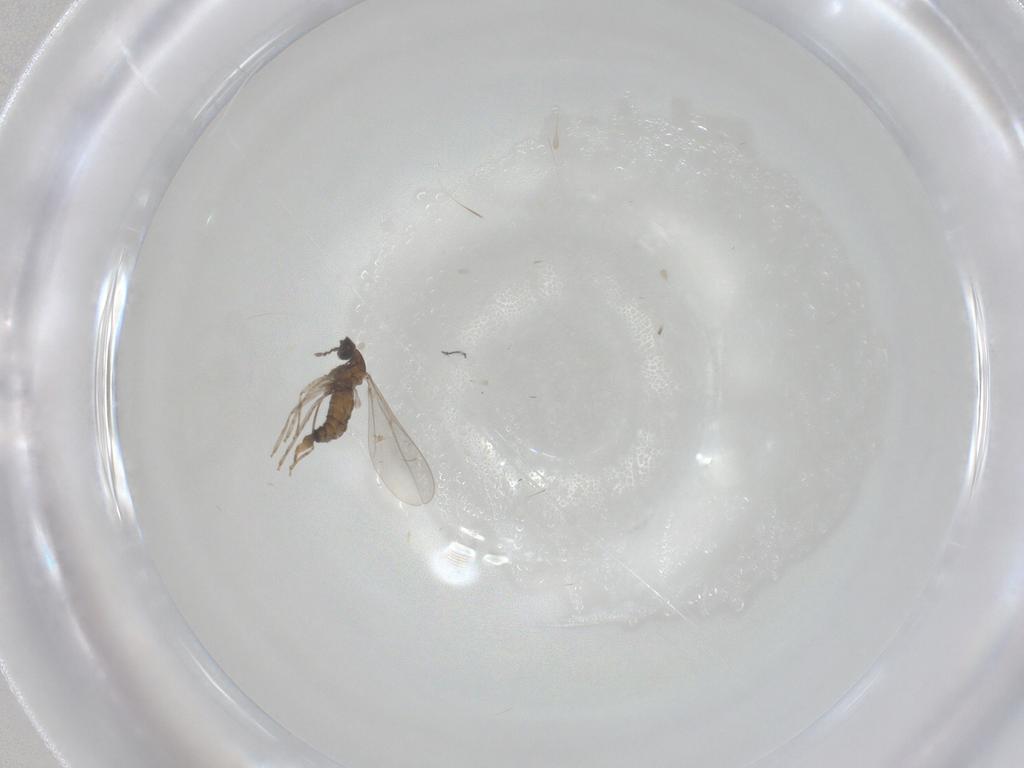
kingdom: Animalia
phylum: Arthropoda
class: Insecta
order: Diptera
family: Cecidomyiidae
